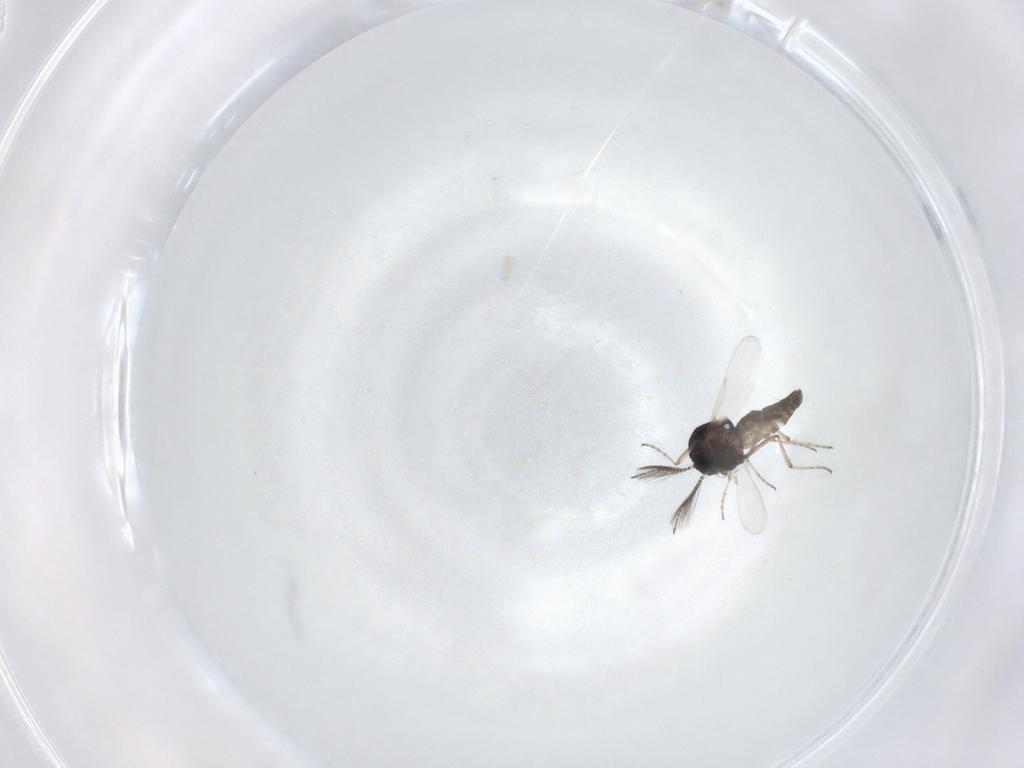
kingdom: Animalia
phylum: Arthropoda
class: Insecta
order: Diptera
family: Ceratopogonidae
